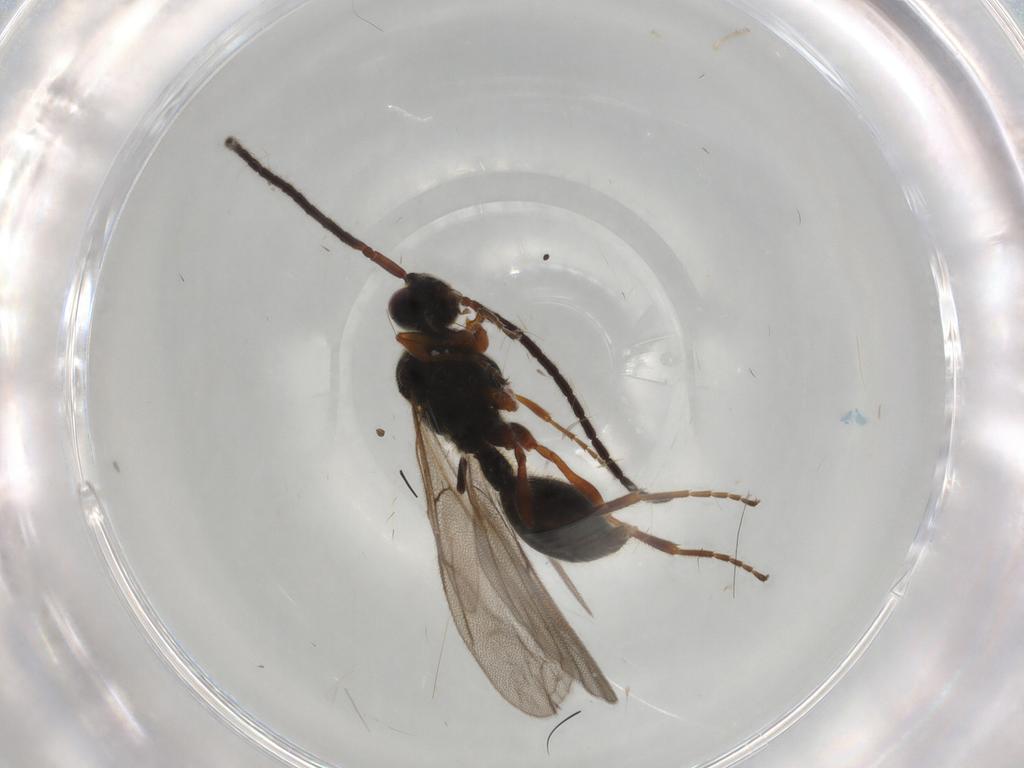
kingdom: Animalia
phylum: Arthropoda
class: Insecta
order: Hymenoptera
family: Diapriidae
